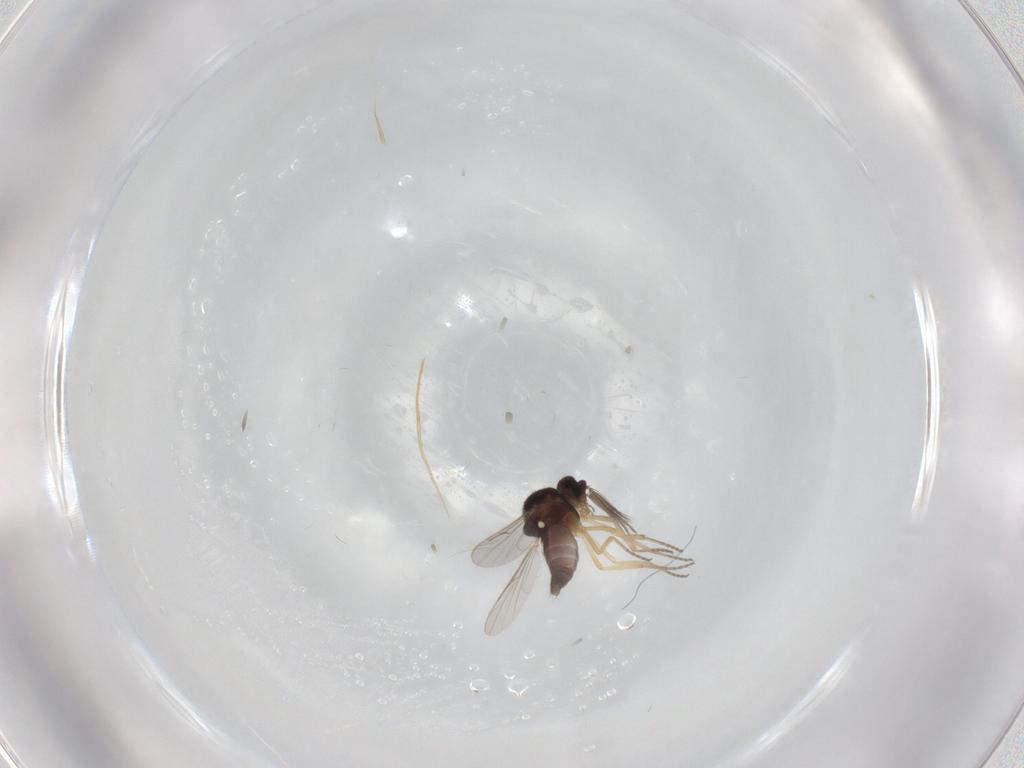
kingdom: Animalia
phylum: Arthropoda
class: Insecta
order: Diptera
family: Ceratopogonidae
